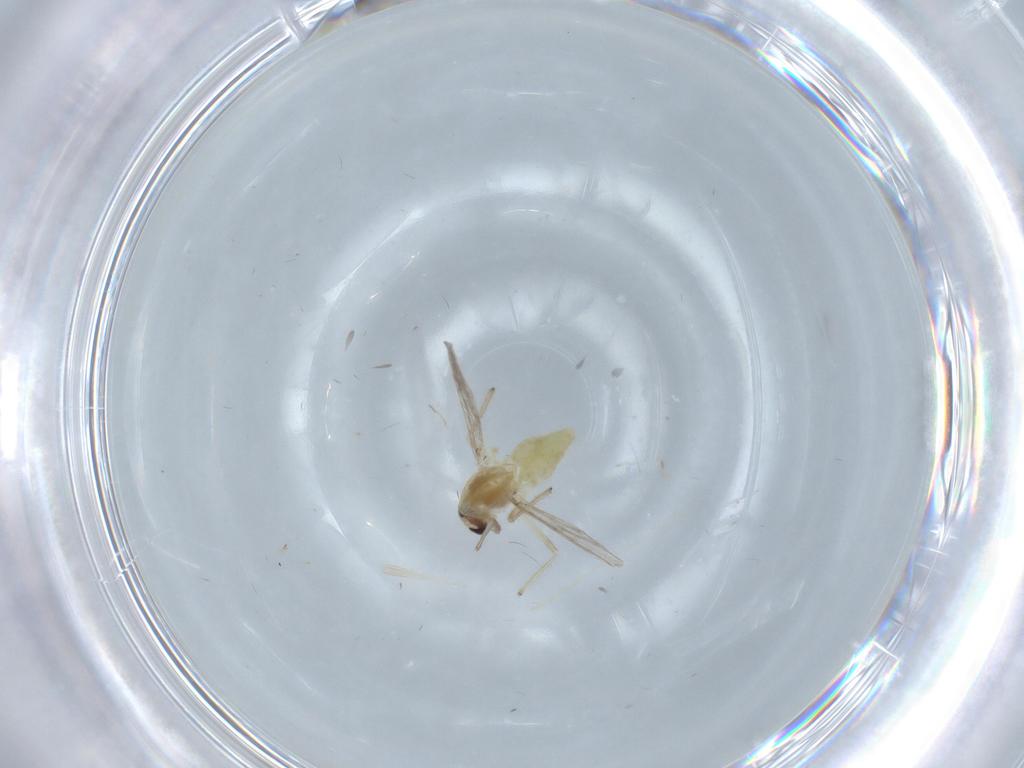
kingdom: Animalia
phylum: Arthropoda
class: Insecta
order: Diptera
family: Chironomidae
